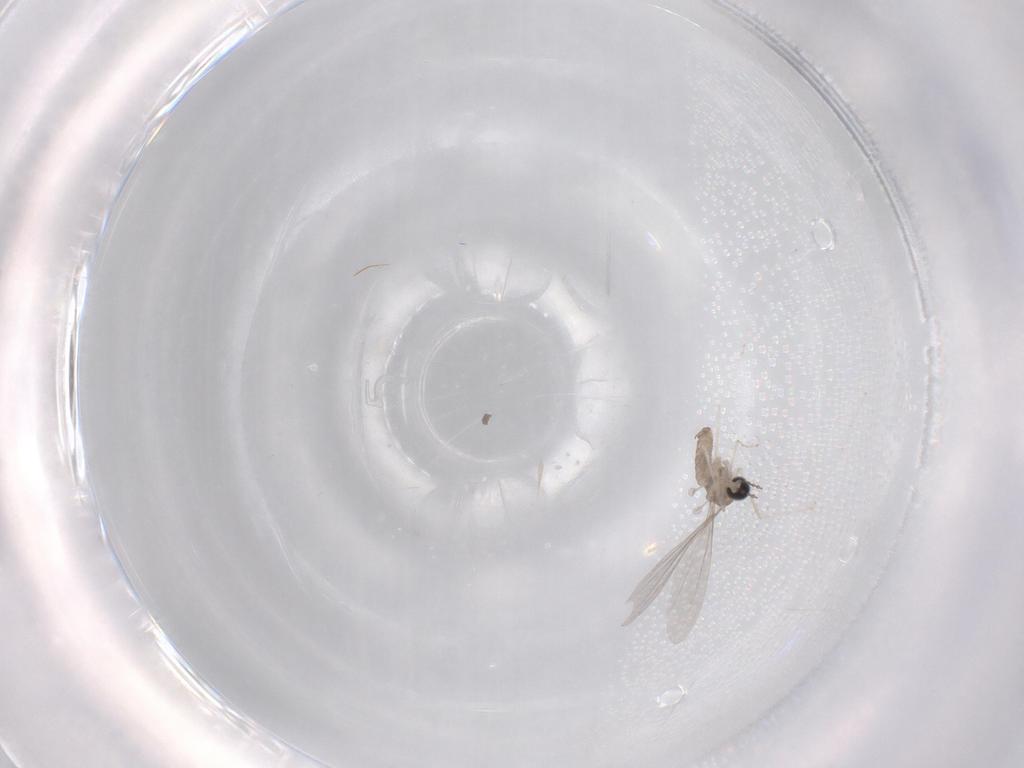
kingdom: Animalia
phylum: Arthropoda
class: Insecta
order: Diptera
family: Cecidomyiidae
